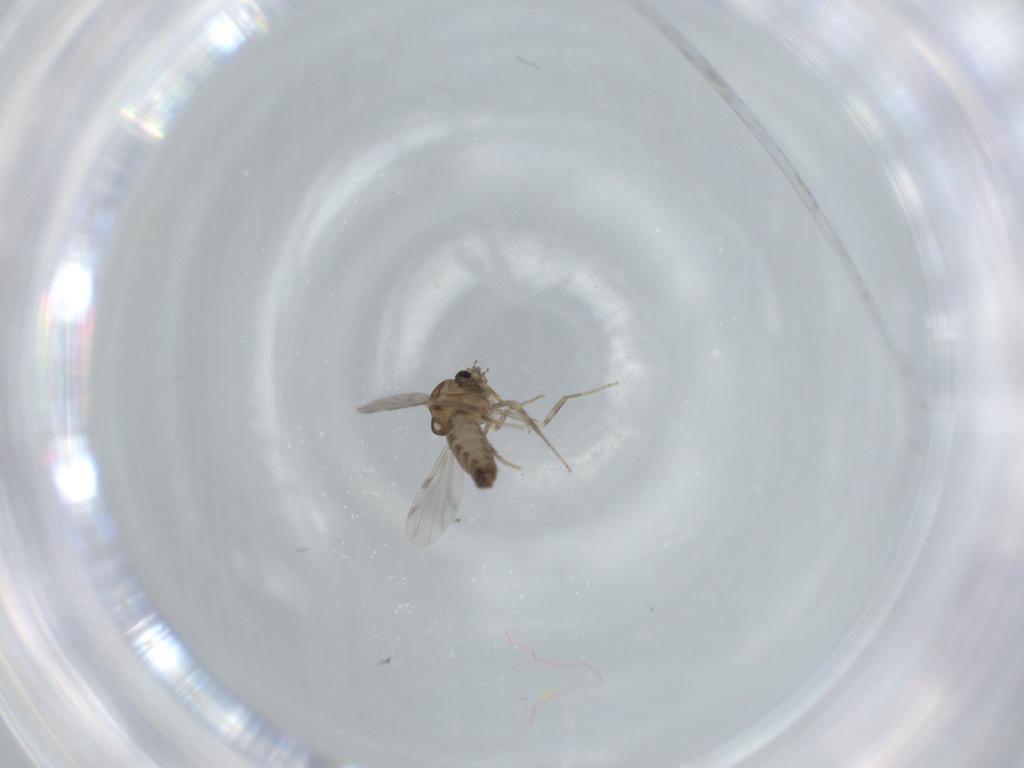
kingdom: Animalia
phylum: Arthropoda
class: Insecta
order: Diptera
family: Ceratopogonidae
